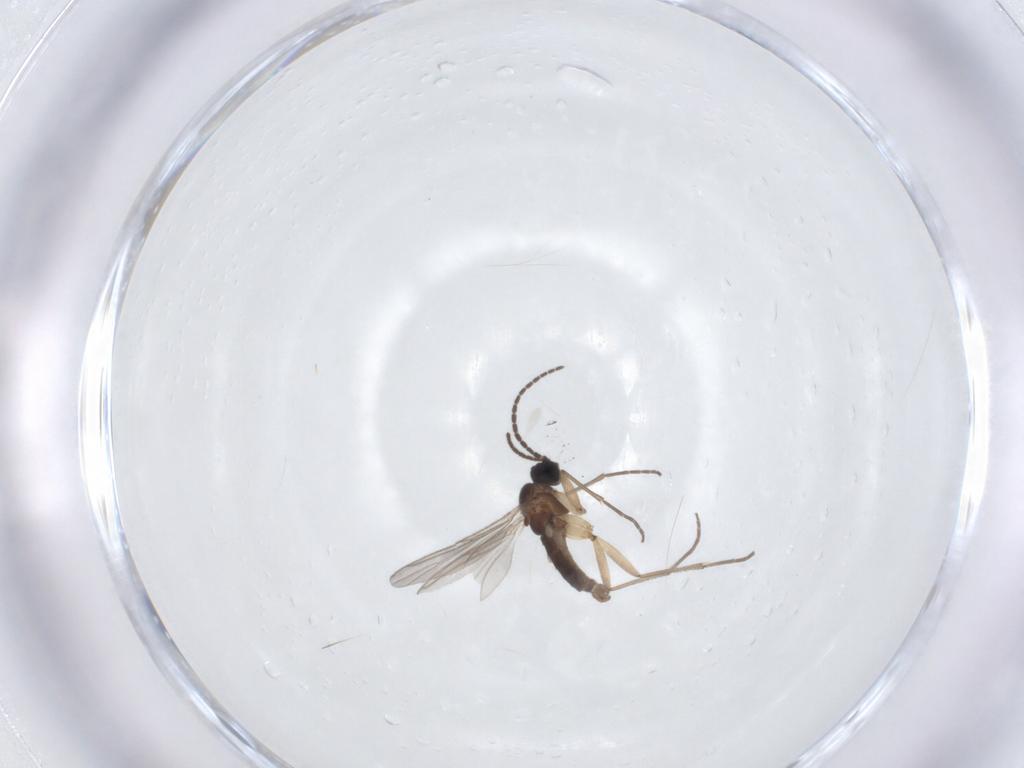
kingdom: Animalia
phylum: Arthropoda
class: Insecta
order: Diptera
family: Sciaridae
